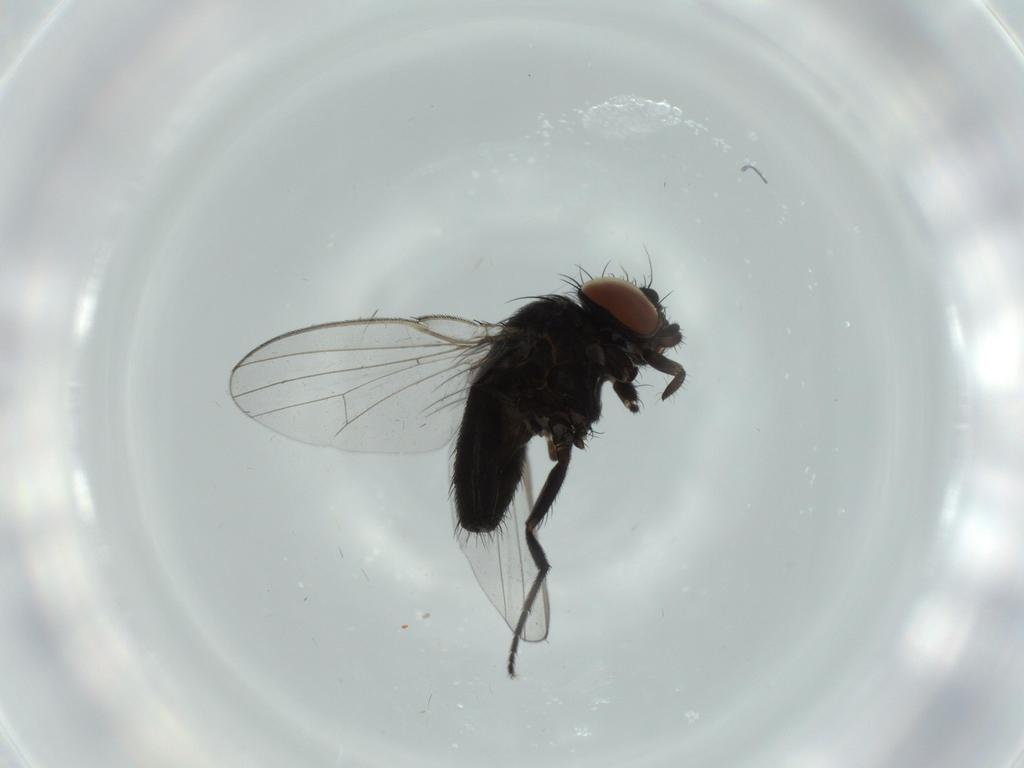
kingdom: Animalia
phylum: Arthropoda
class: Insecta
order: Diptera
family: Milichiidae
